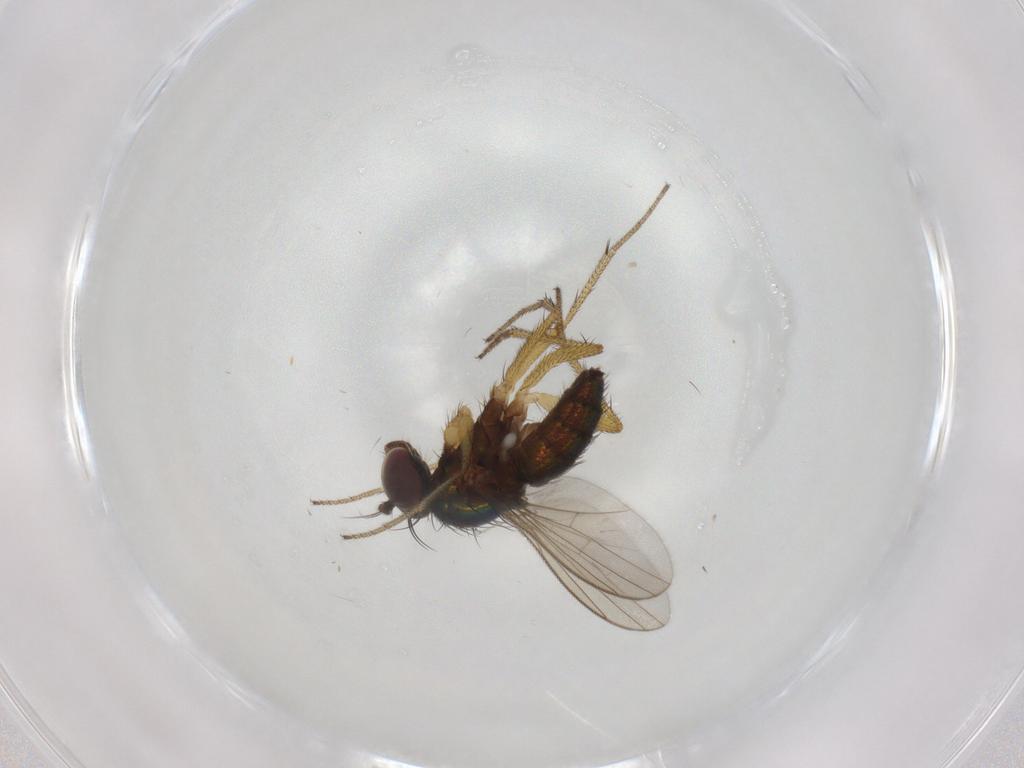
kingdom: Animalia
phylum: Arthropoda
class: Insecta
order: Diptera
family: Dolichopodidae
